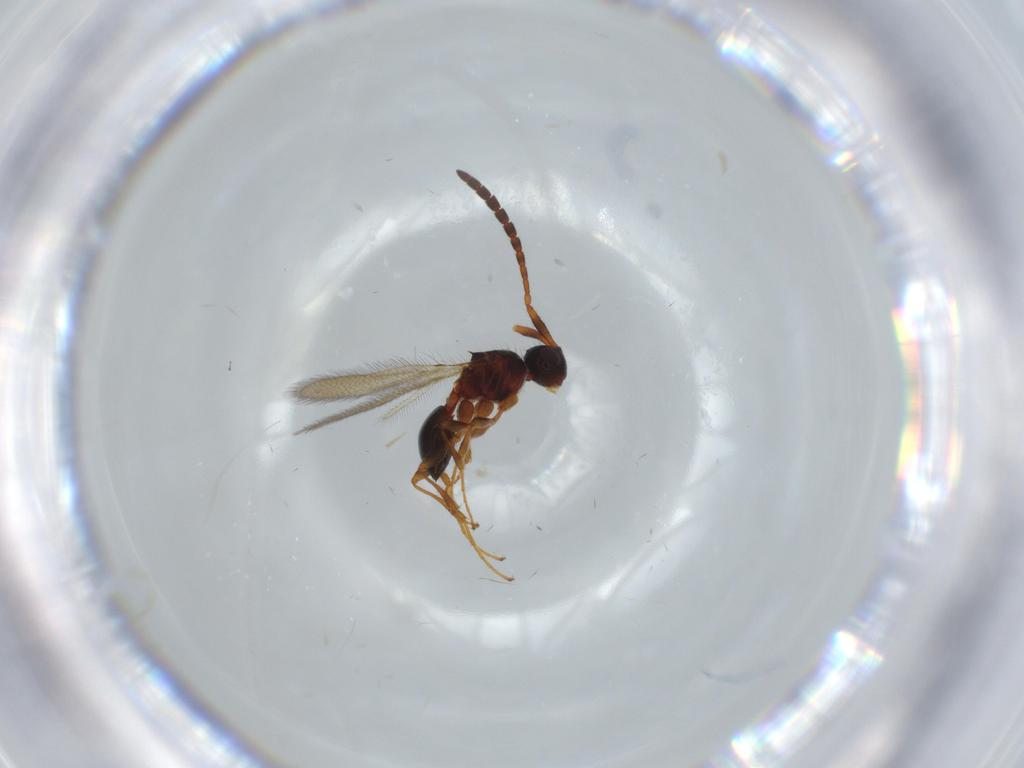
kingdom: Animalia
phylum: Arthropoda
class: Insecta
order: Hymenoptera
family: Diapriidae
